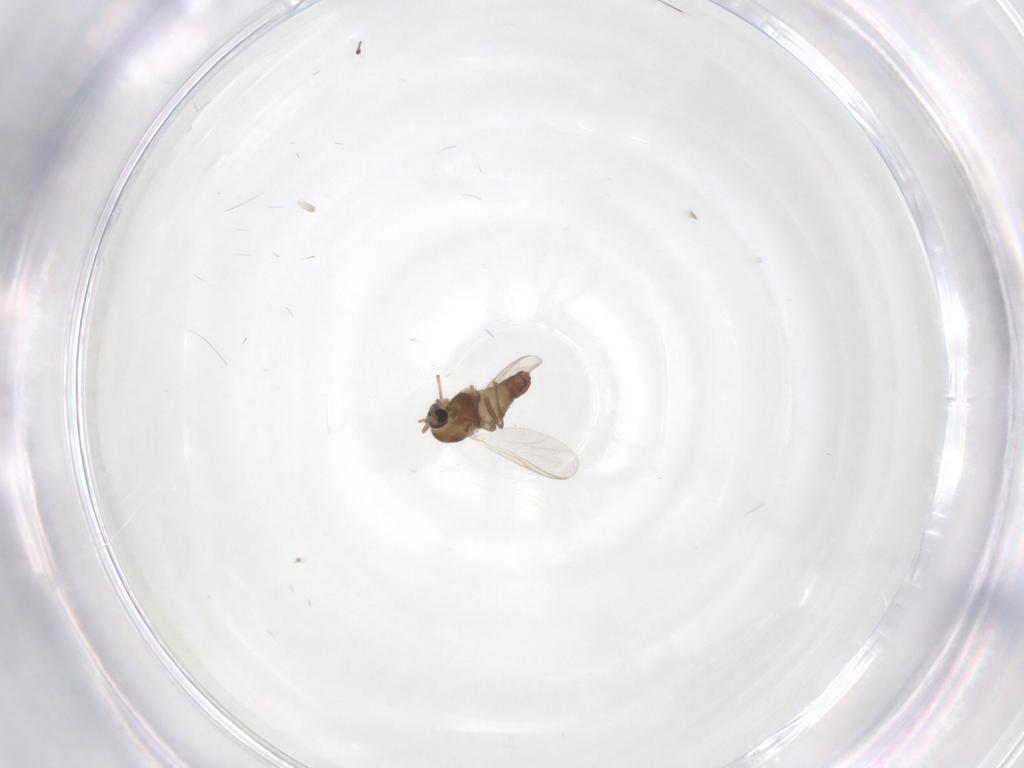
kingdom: Animalia
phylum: Arthropoda
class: Insecta
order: Diptera
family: Chironomidae
